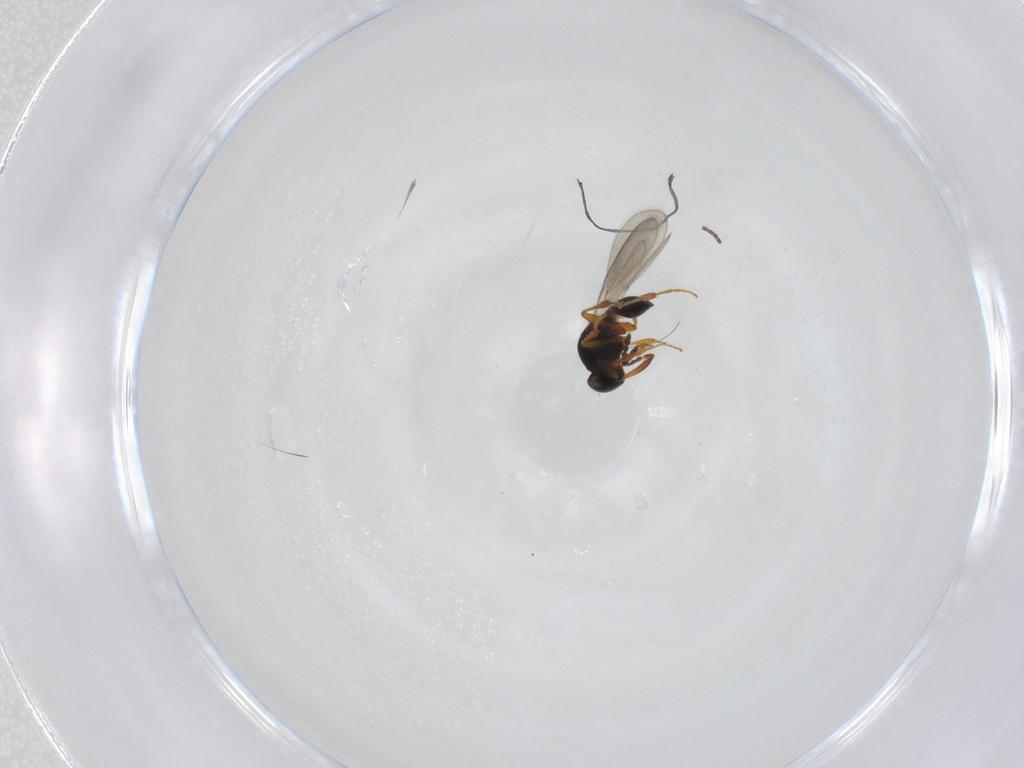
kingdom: Animalia
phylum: Arthropoda
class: Insecta
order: Hymenoptera
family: Platygastridae
